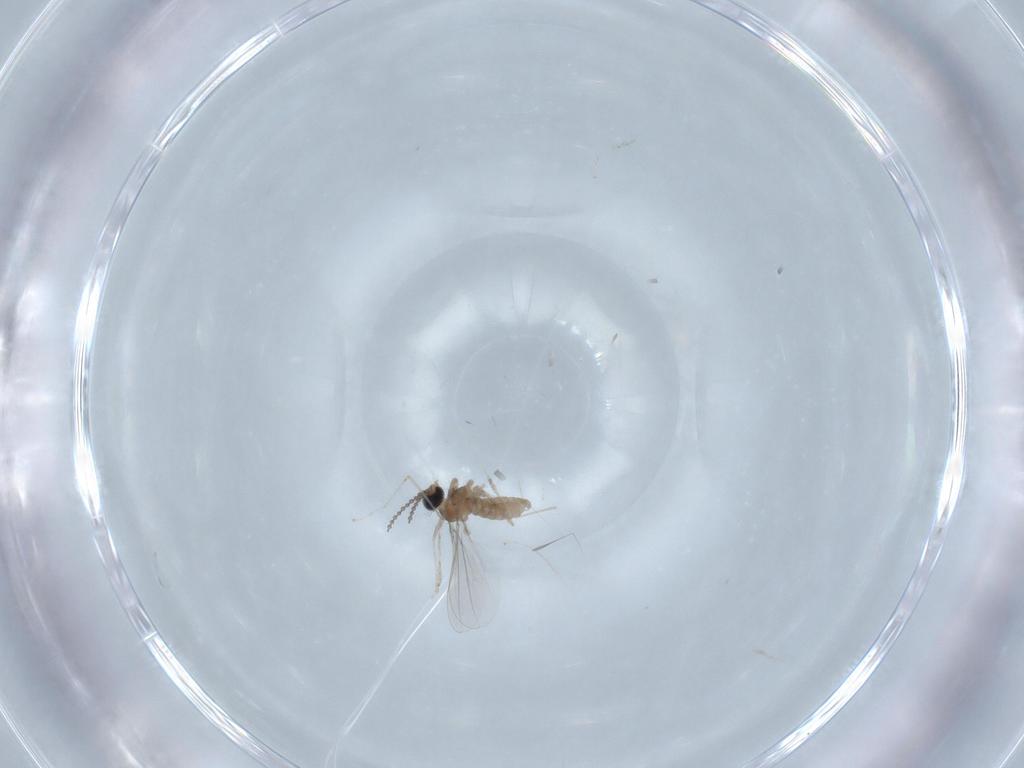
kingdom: Animalia
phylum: Arthropoda
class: Insecta
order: Diptera
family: Cecidomyiidae
